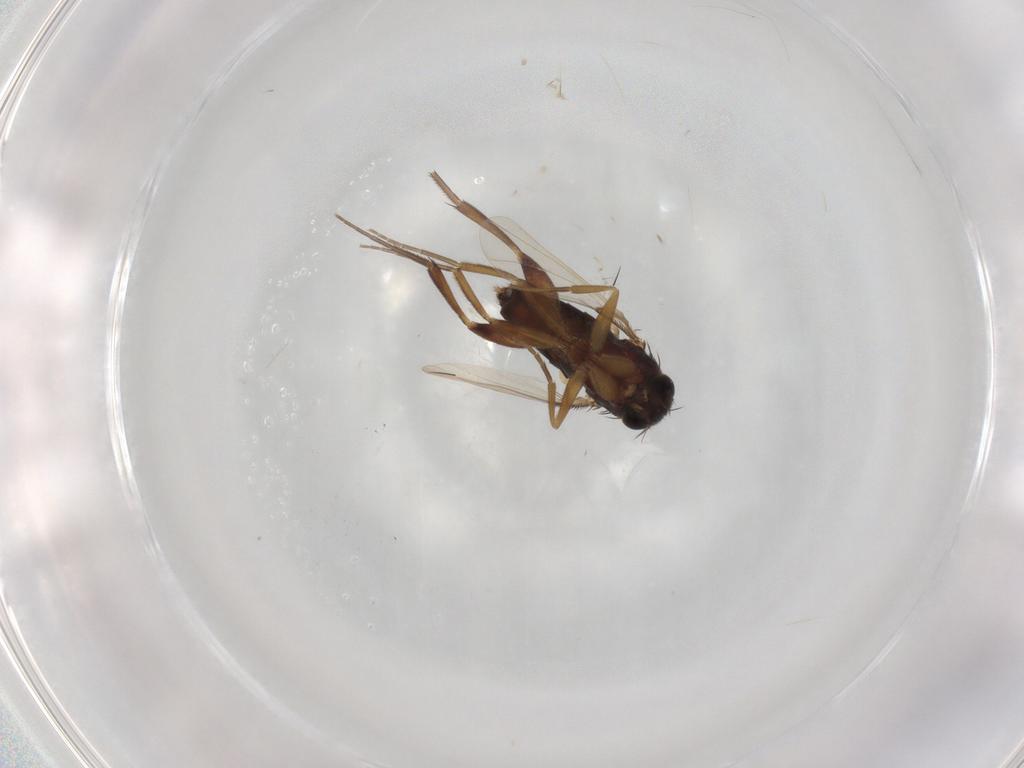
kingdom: Animalia
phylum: Arthropoda
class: Insecta
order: Diptera
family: Phoridae
